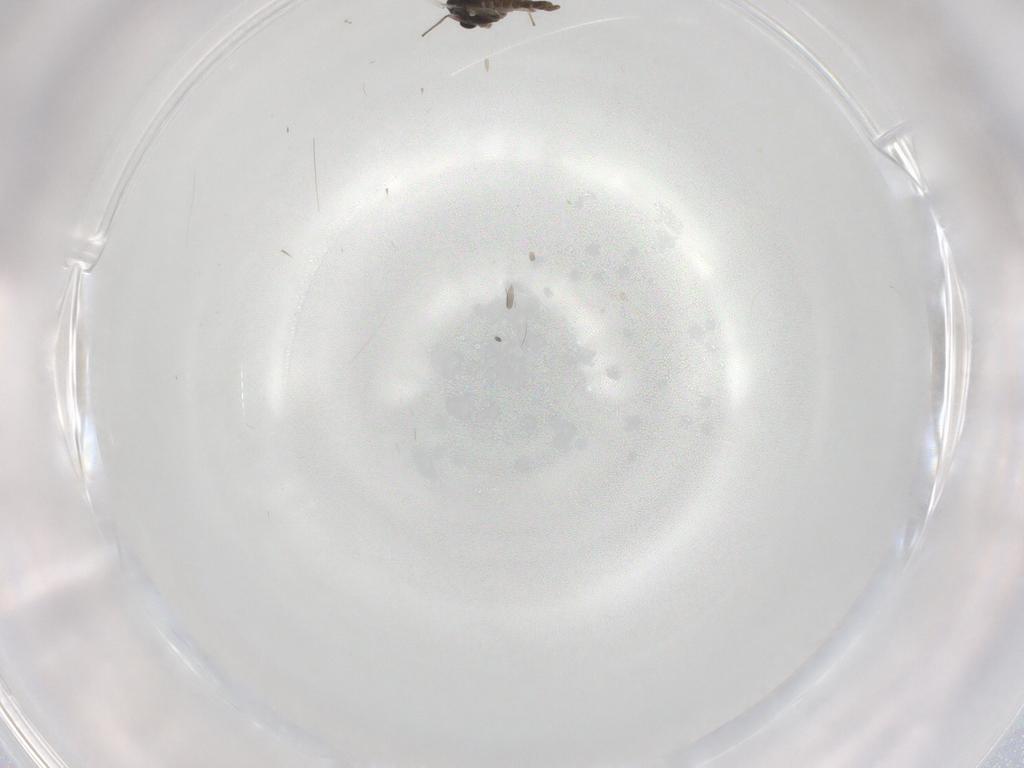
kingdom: Animalia
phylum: Arthropoda
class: Insecta
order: Diptera
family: Chironomidae
